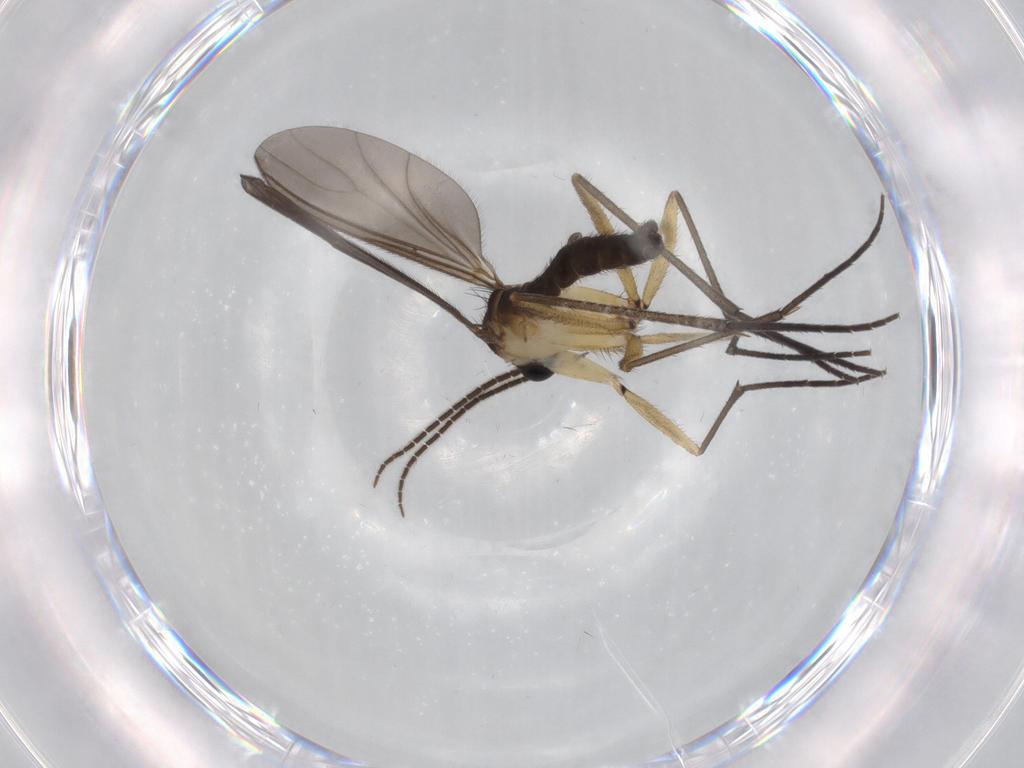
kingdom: Animalia
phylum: Arthropoda
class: Insecta
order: Diptera
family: Sciaridae
